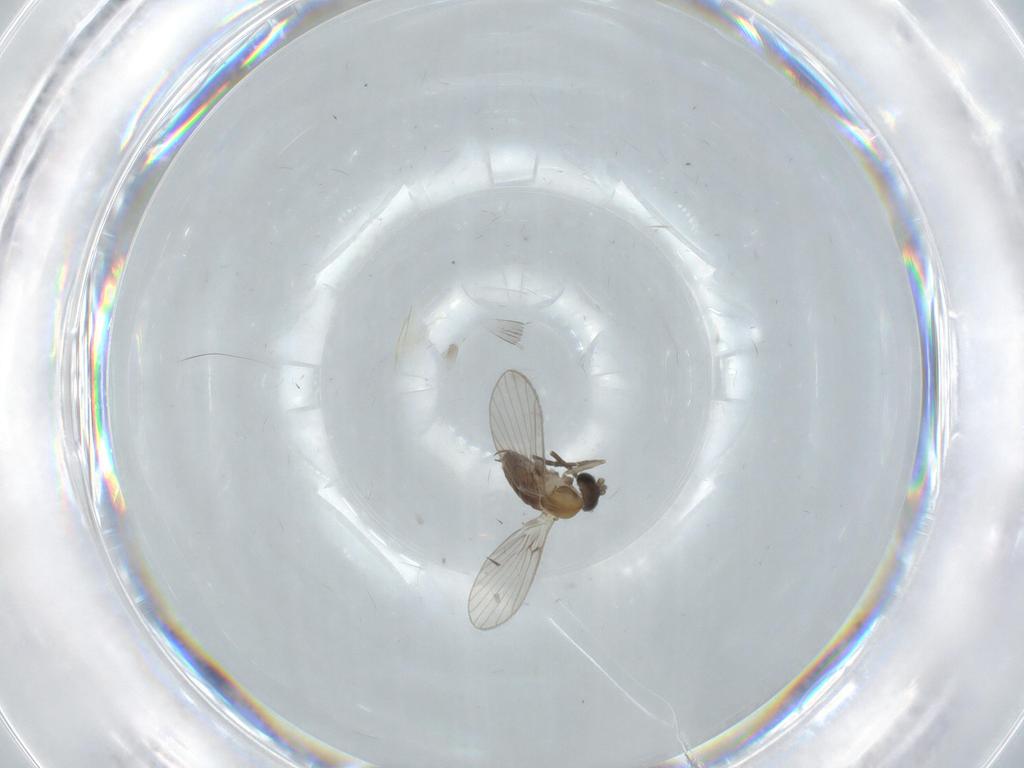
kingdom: Animalia
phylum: Arthropoda
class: Insecta
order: Diptera
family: Psychodidae
